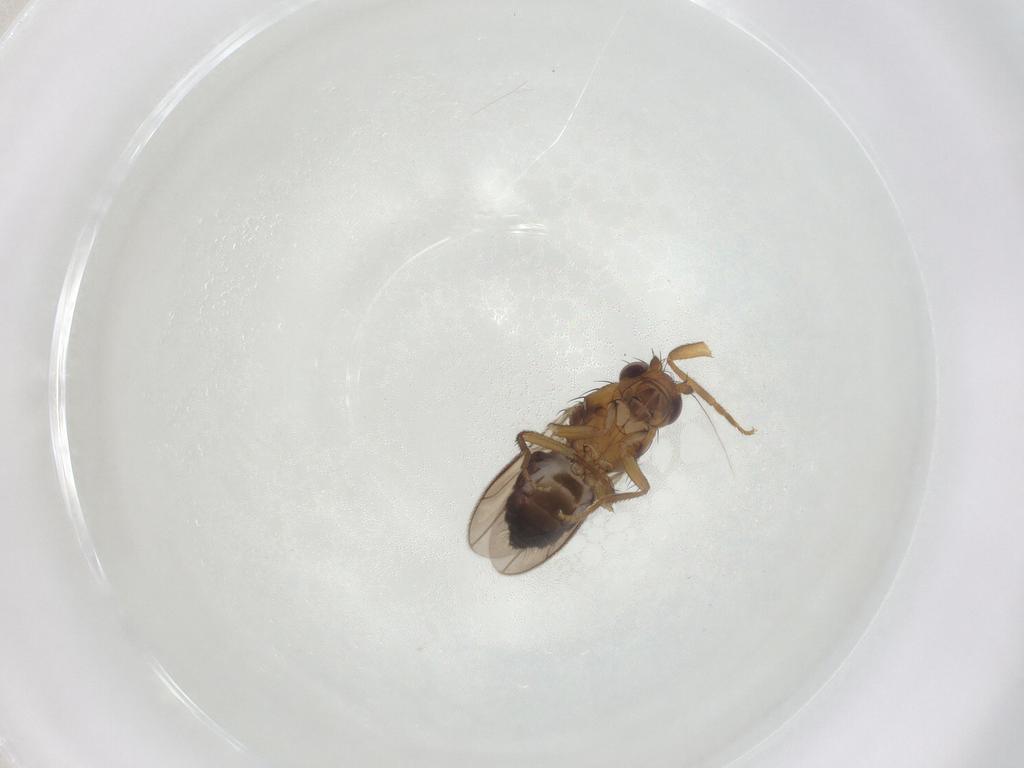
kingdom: Animalia
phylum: Arthropoda
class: Insecta
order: Diptera
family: Sphaeroceridae
